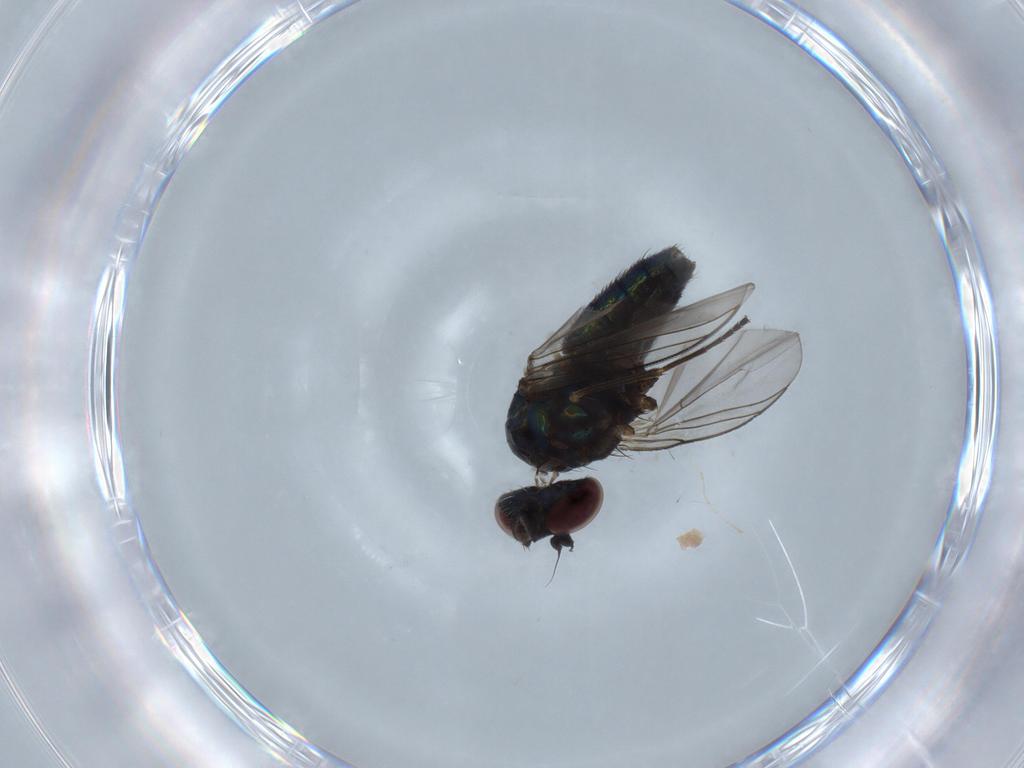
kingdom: Animalia
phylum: Arthropoda
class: Insecta
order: Diptera
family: Dolichopodidae
